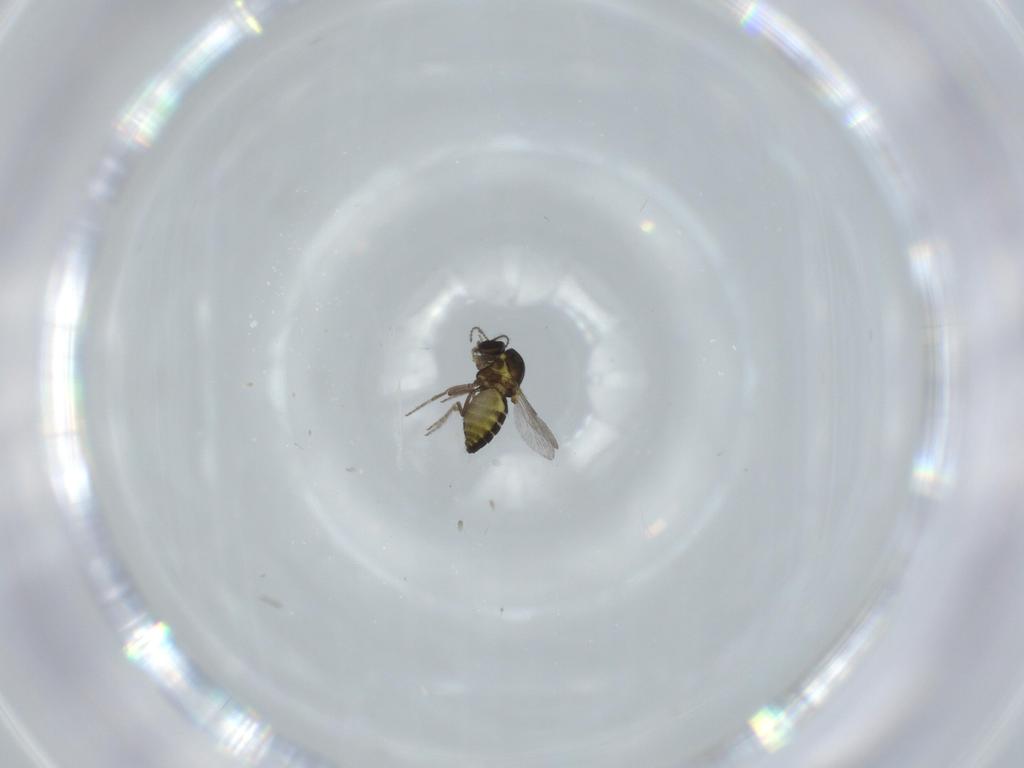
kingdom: Animalia
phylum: Arthropoda
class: Insecta
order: Diptera
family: Ceratopogonidae
